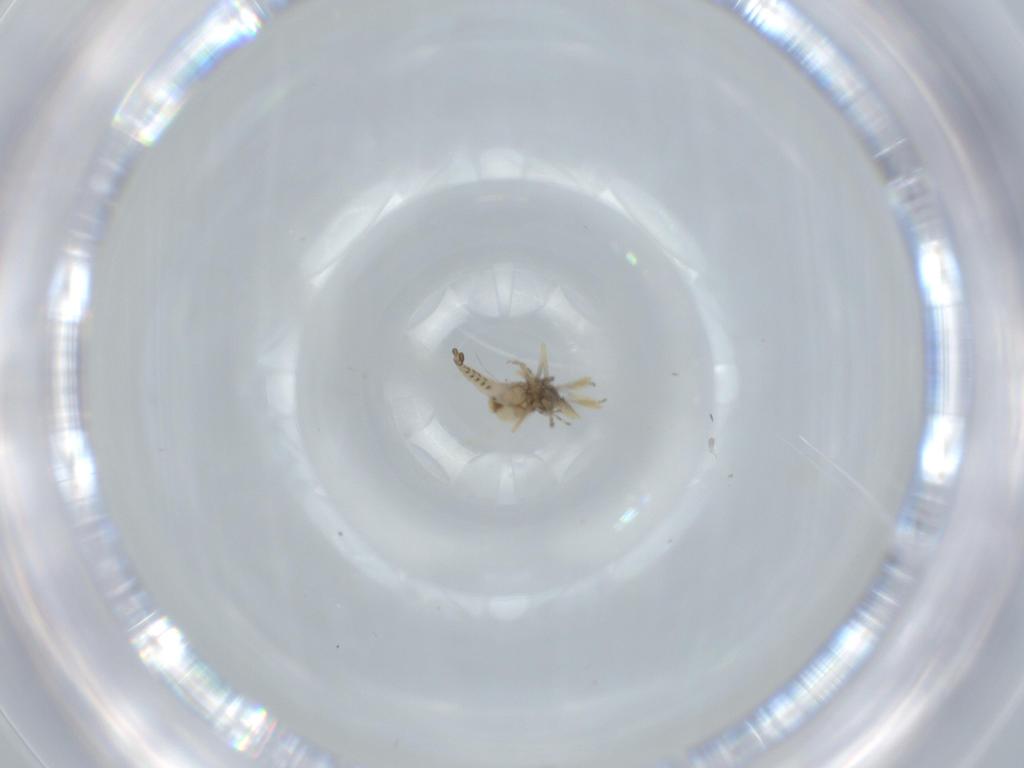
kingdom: Animalia
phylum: Arthropoda
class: Insecta
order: Diptera
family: Ceratopogonidae
